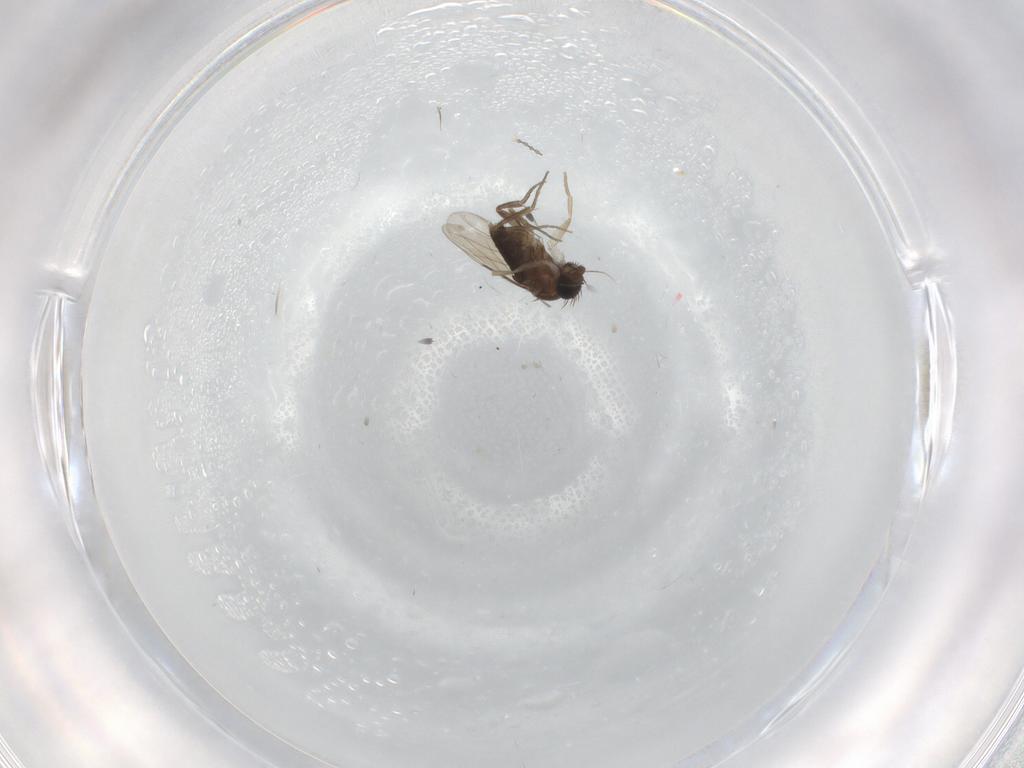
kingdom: Animalia
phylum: Arthropoda
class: Insecta
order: Diptera
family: Phoridae
